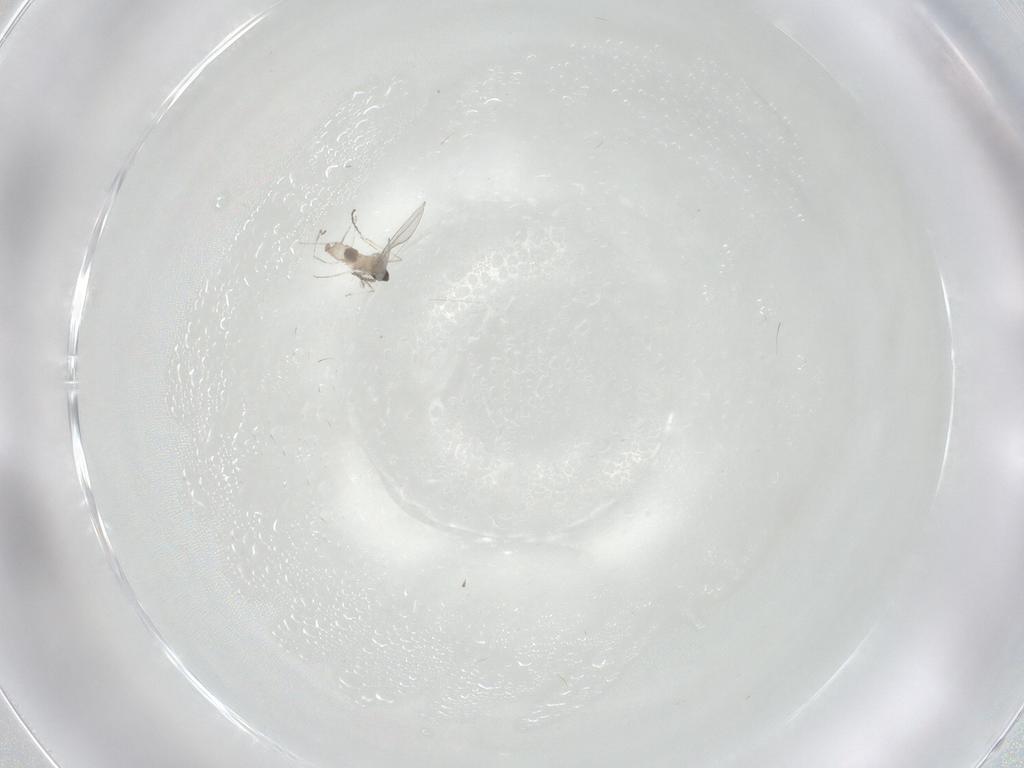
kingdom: Animalia
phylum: Arthropoda
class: Insecta
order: Diptera
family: Cecidomyiidae
